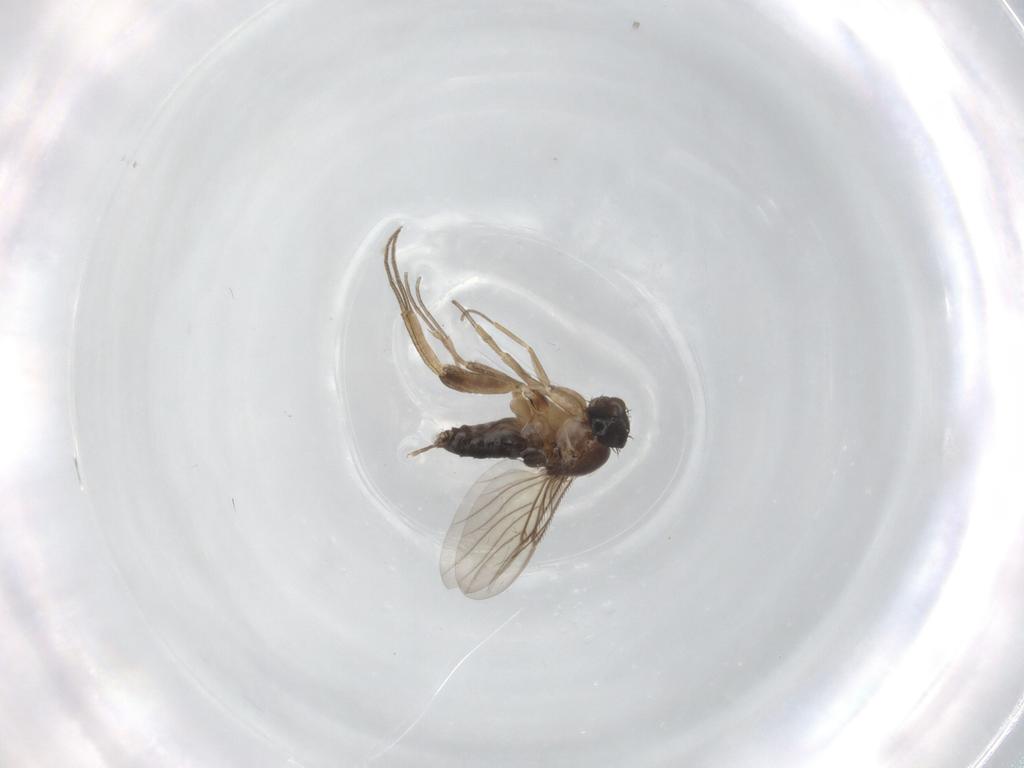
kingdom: Animalia
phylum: Arthropoda
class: Insecta
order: Diptera
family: Chironomidae
